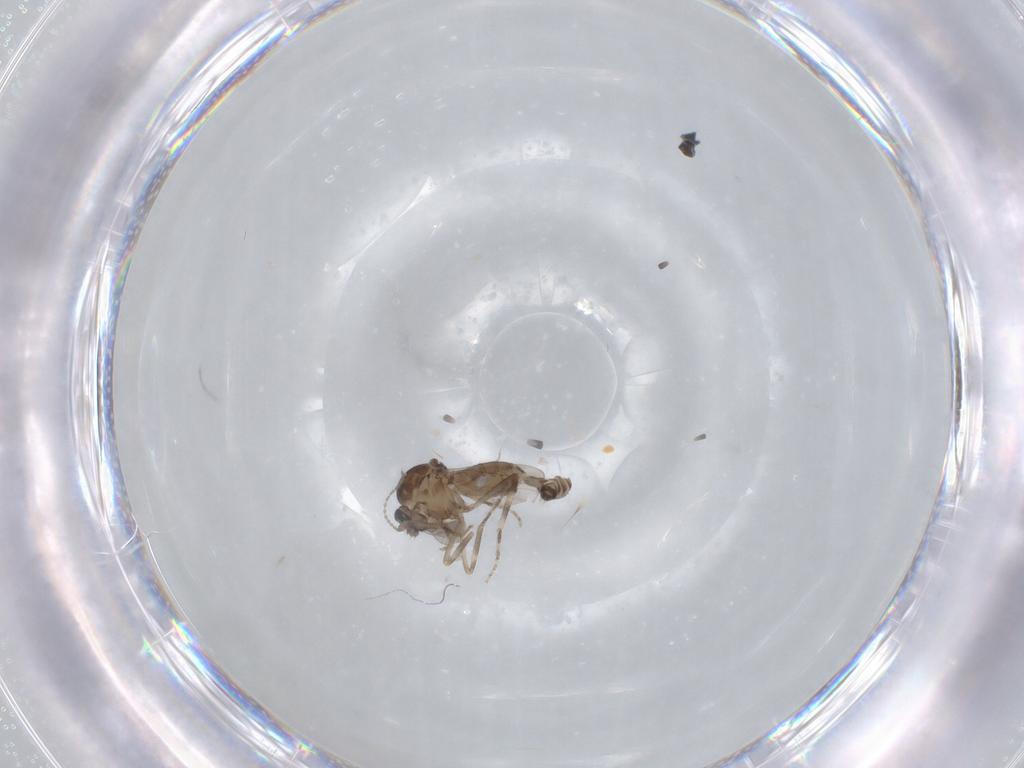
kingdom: Animalia
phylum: Arthropoda
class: Insecta
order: Diptera
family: Ceratopogonidae
